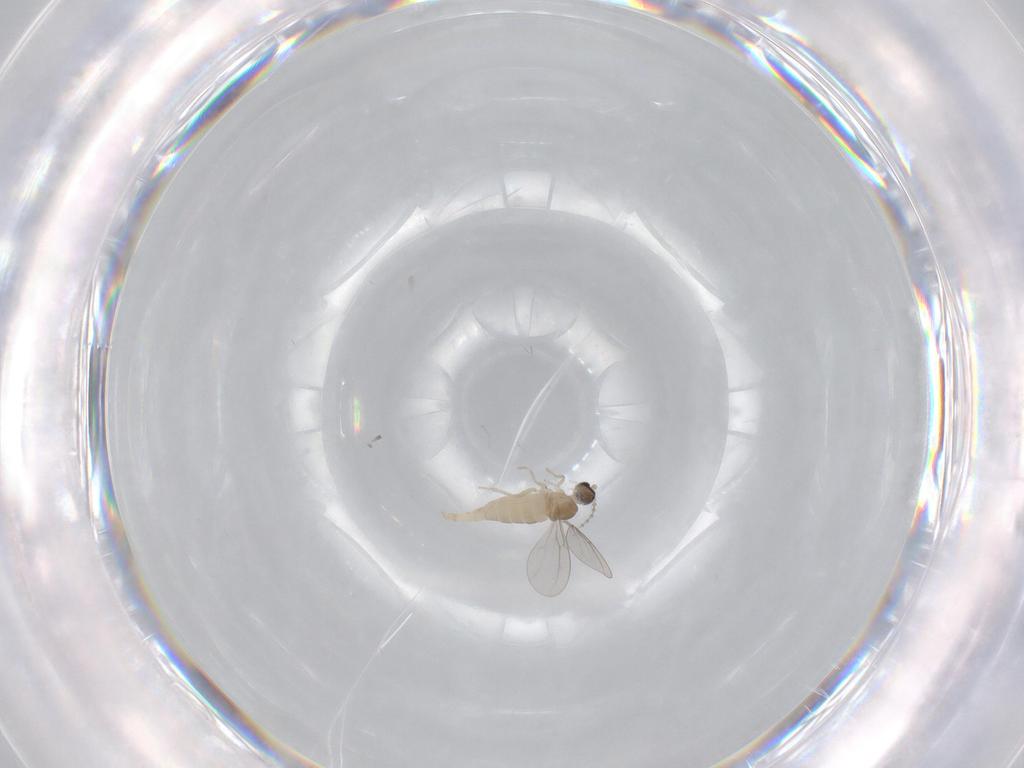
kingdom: Animalia
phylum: Arthropoda
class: Insecta
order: Diptera
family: Cecidomyiidae
